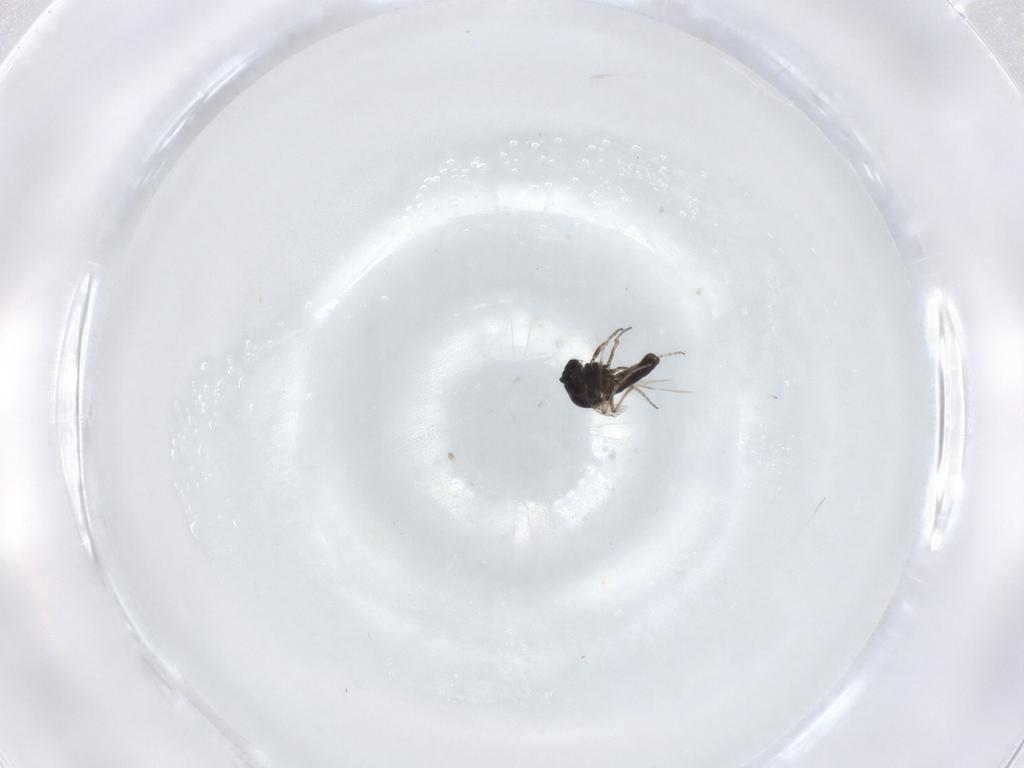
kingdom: Animalia
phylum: Arthropoda
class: Insecta
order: Diptera
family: Ceratopogonidae
